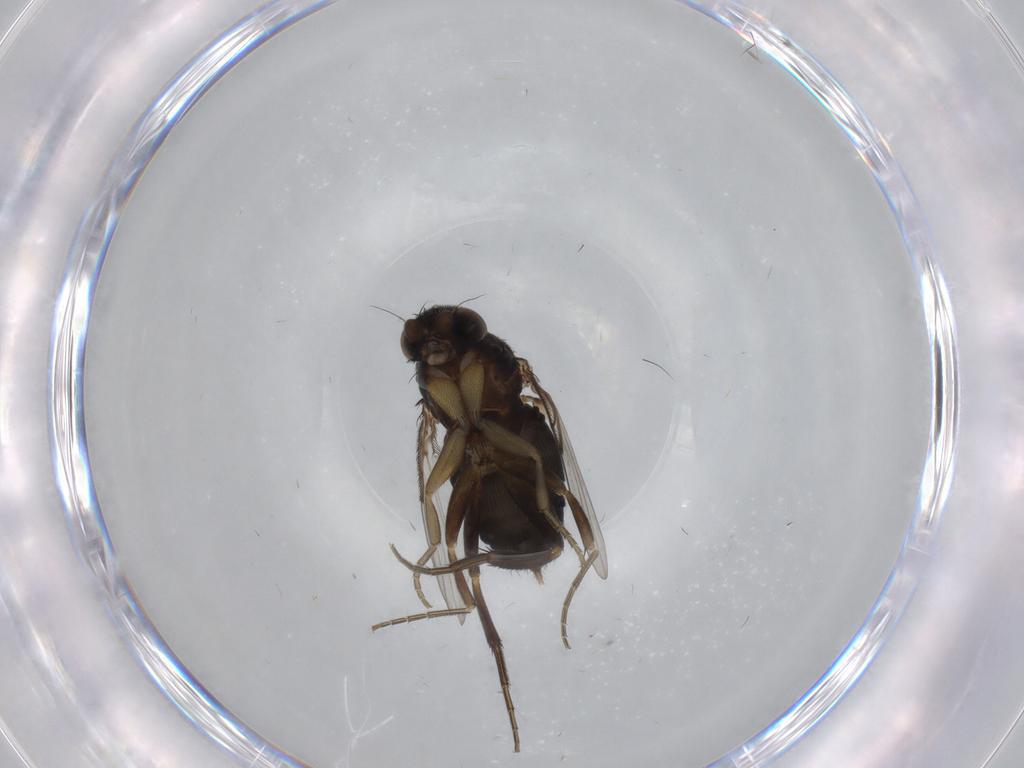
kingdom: Animalia
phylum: Arthropoda
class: Insecta
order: Diptera
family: Phoridae
